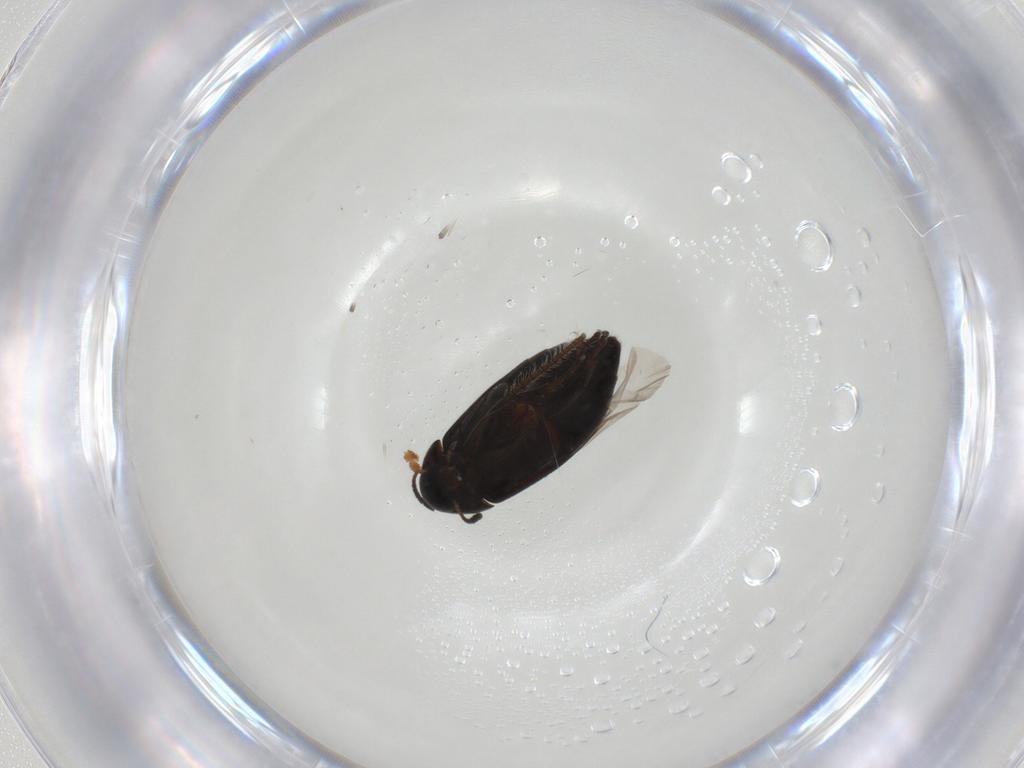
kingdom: Animalia
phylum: Arthropoda
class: Insecta
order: Coleoptera
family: Scraptiidae
